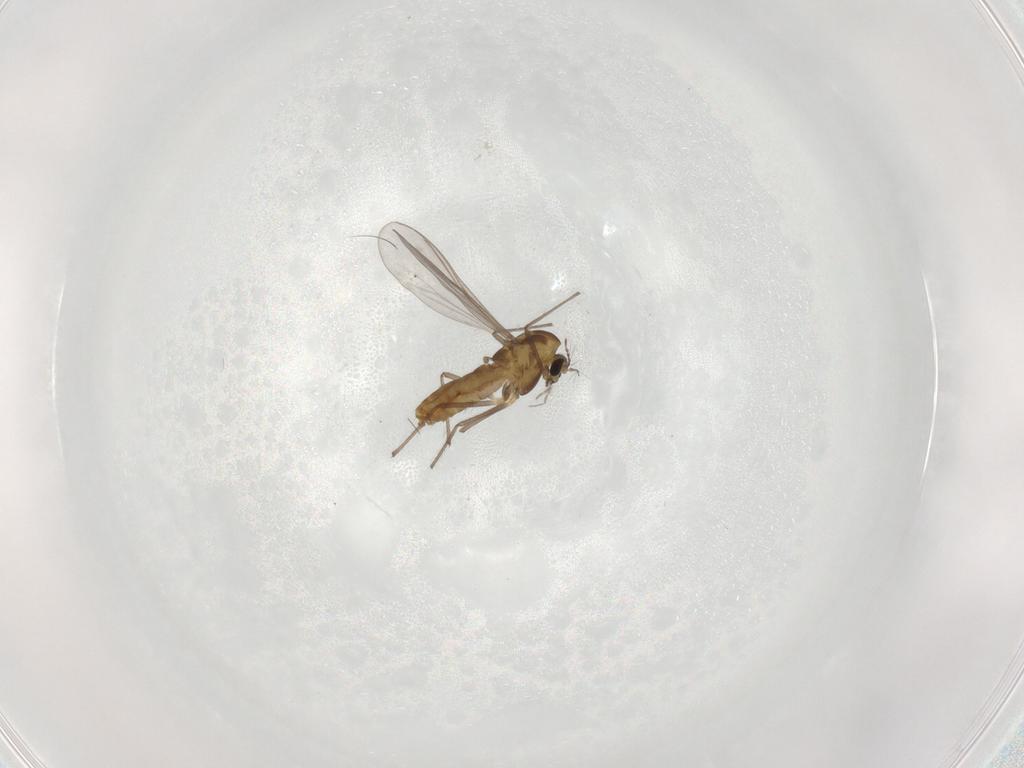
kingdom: Animalia
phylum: Arthropoda
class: Insecta
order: Diptera
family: Chironomidae
